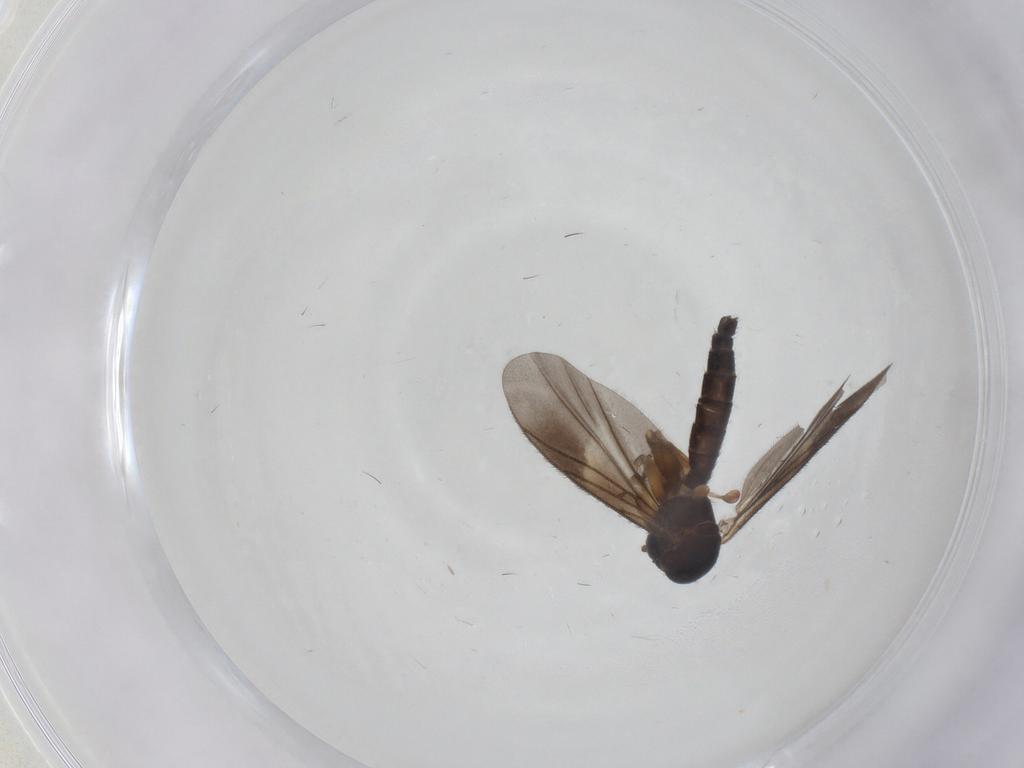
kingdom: Animalia
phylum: Arthropoda
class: Insecta
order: Diptera
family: Mycetophilidae
